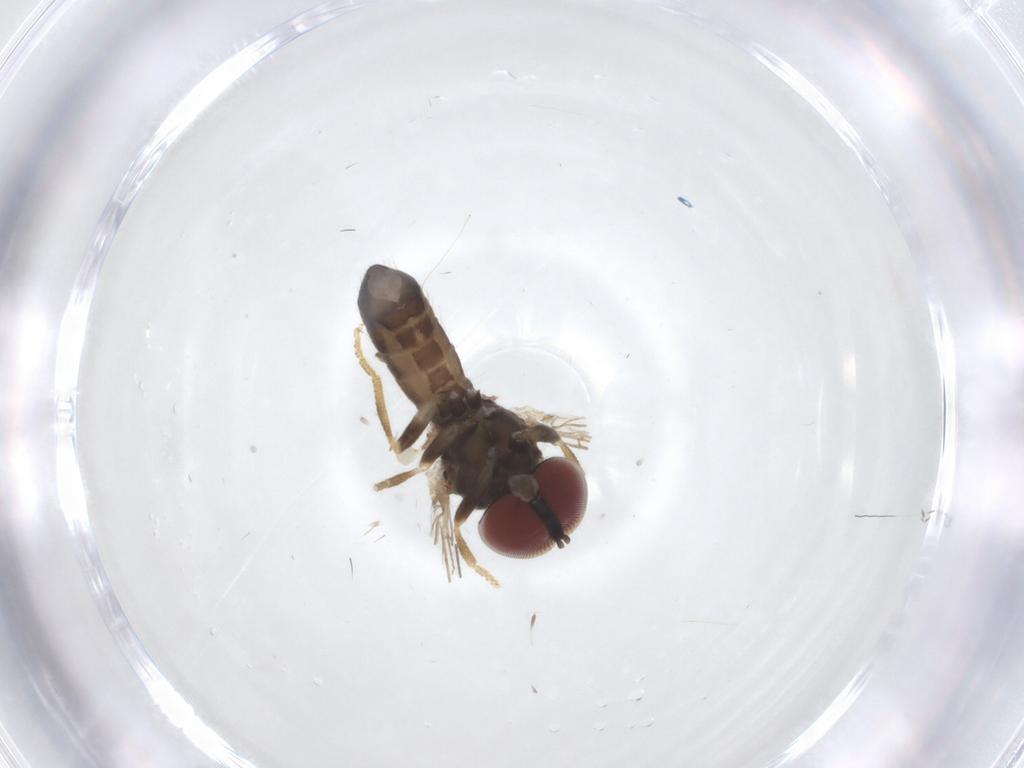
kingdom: Animalia
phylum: Arthropoda
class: Insecta
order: Diptera
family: Pipunculidae
